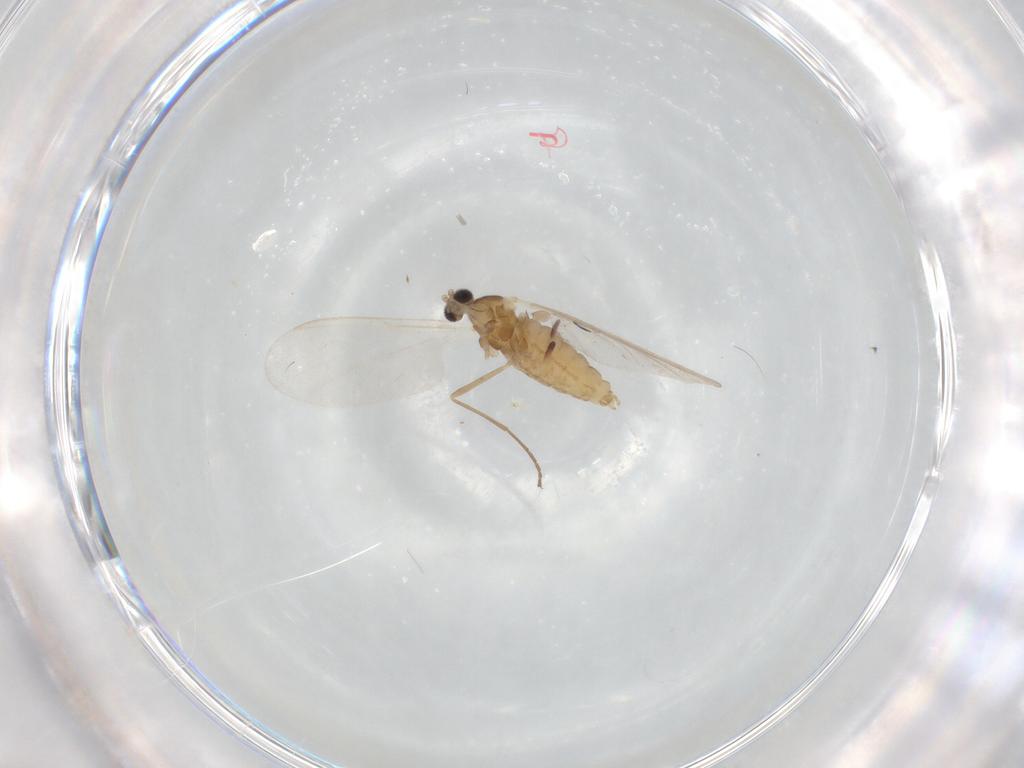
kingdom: Animalia
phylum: Arthropoda
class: Insecta
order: Diptera
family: Cecidomyiidae
